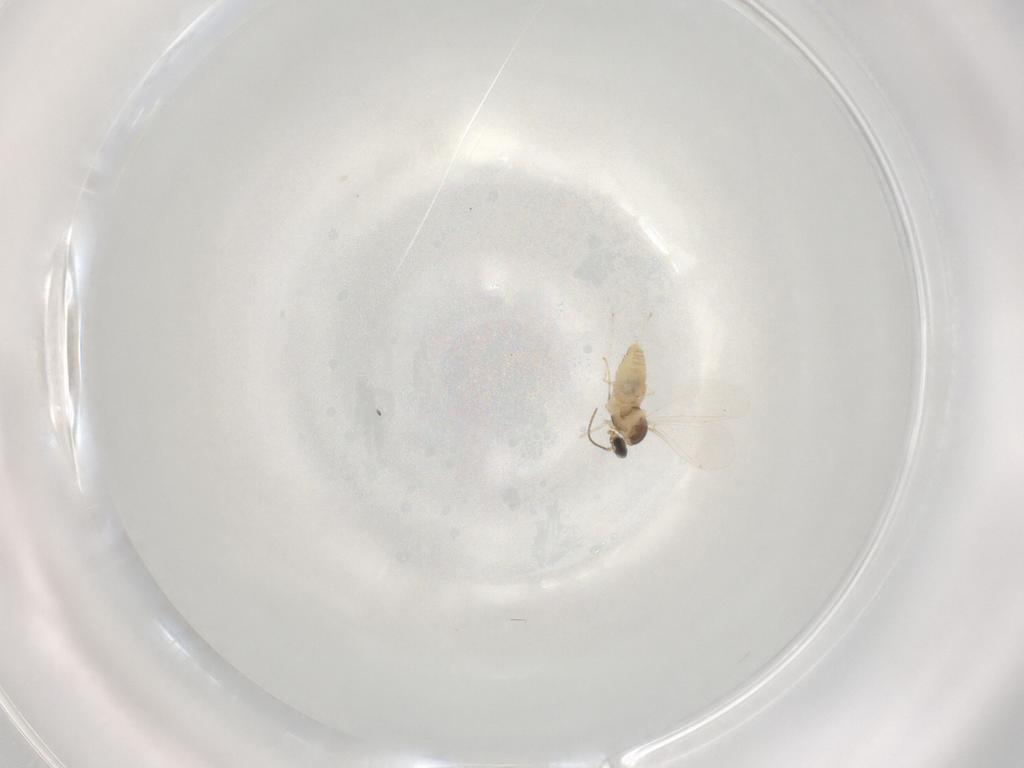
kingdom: Animalia
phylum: Arthropoda
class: Insecta
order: Diptera
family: Cecidomyiidae
